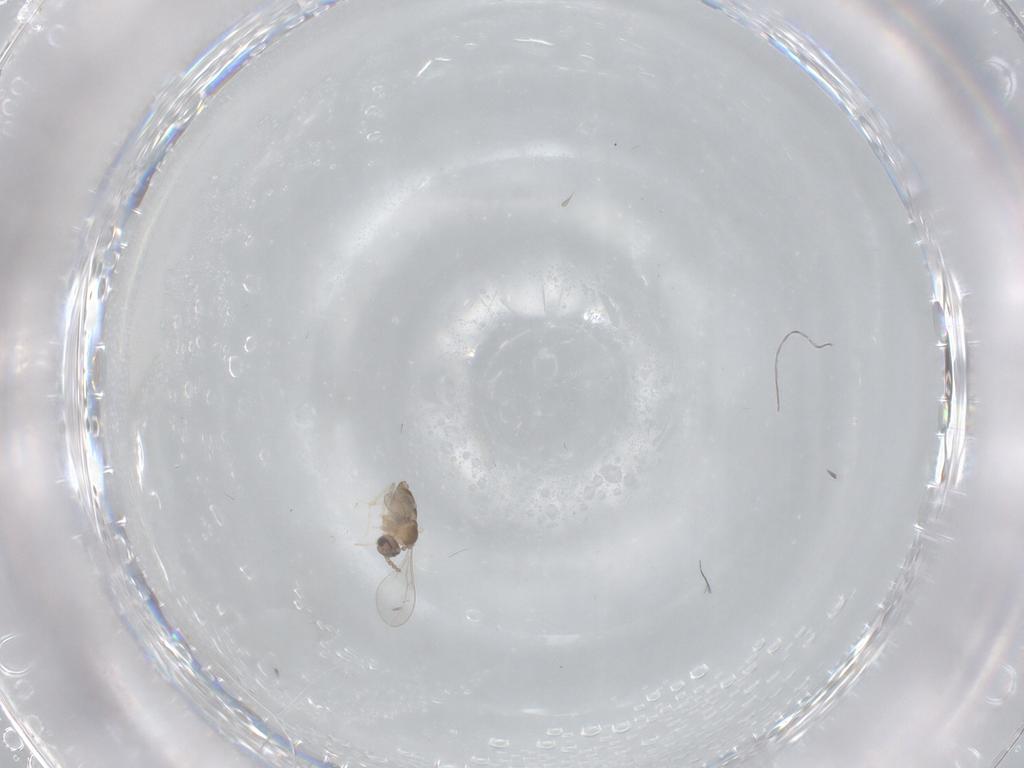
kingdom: Animalia
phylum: Arthropoda
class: Insecta
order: Diptera
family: Cecidomyiidae
